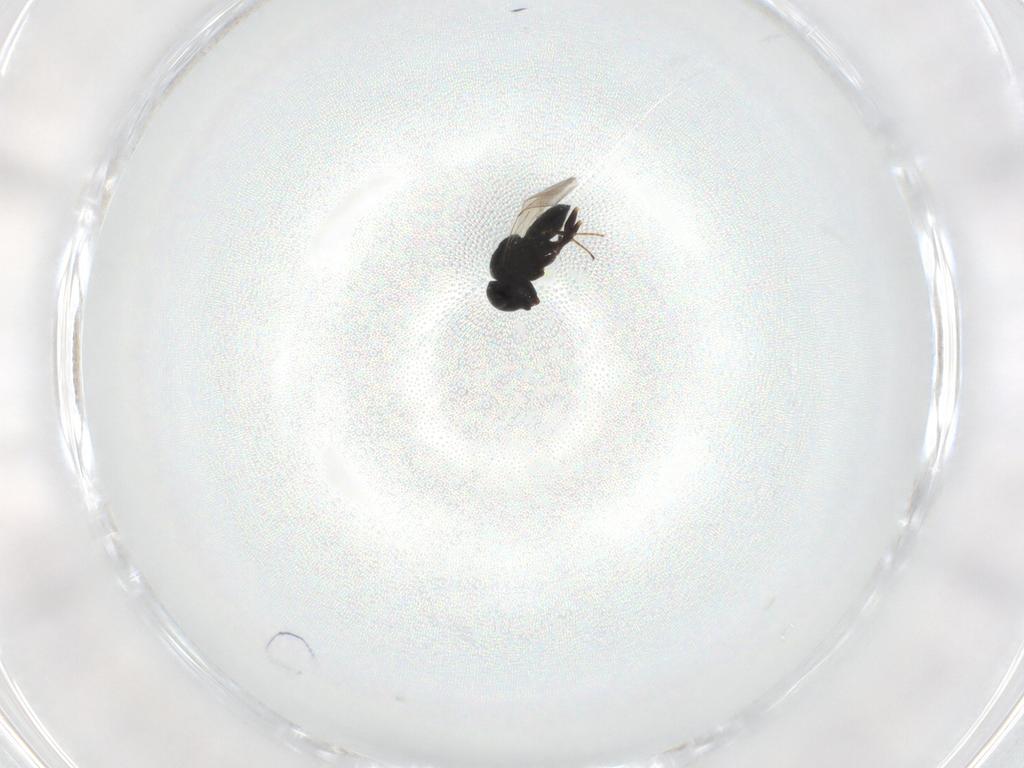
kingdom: Animalia
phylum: Arthropoda
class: Insecta
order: Hymenoptera
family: Scelionidae
